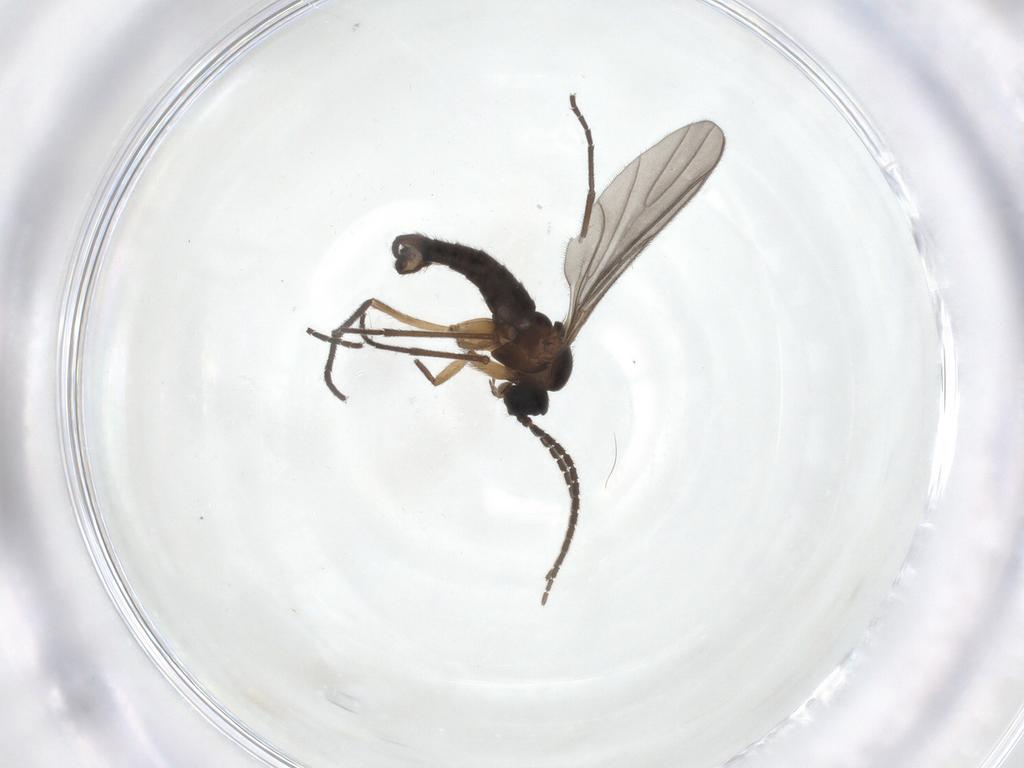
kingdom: Animalia
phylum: Arthropoda
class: Insecta
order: Diptera
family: Sciaridae
